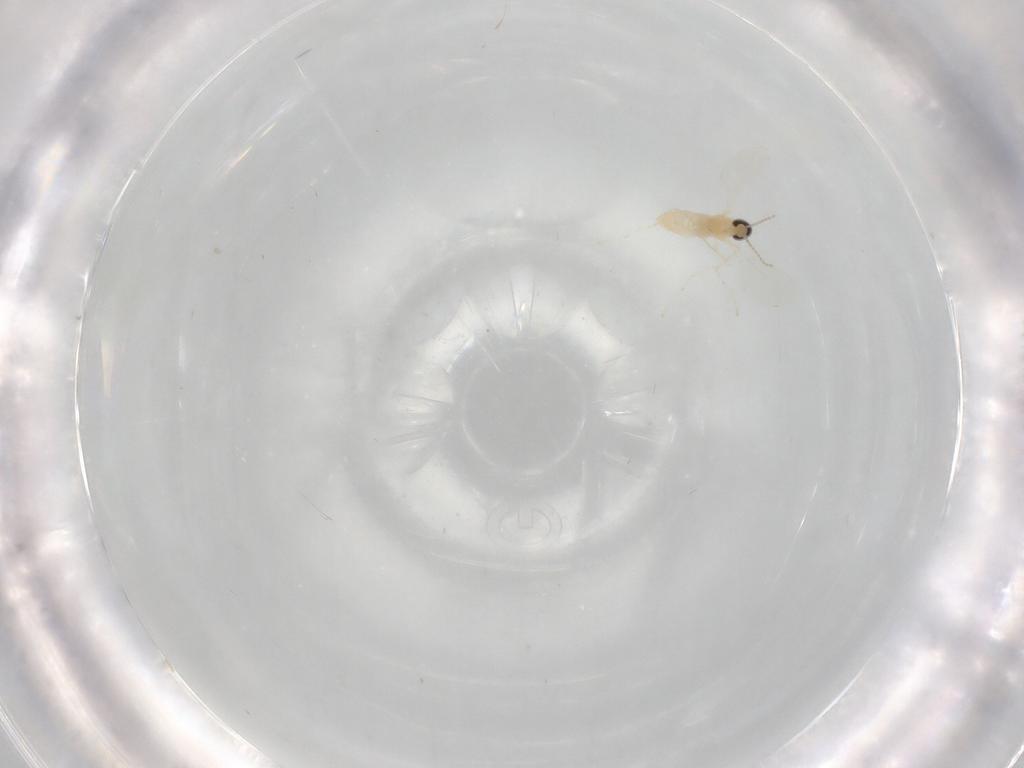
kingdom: Animalia
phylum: Arthropoda
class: Insecta
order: Diptera
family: Cecidomyiidae
